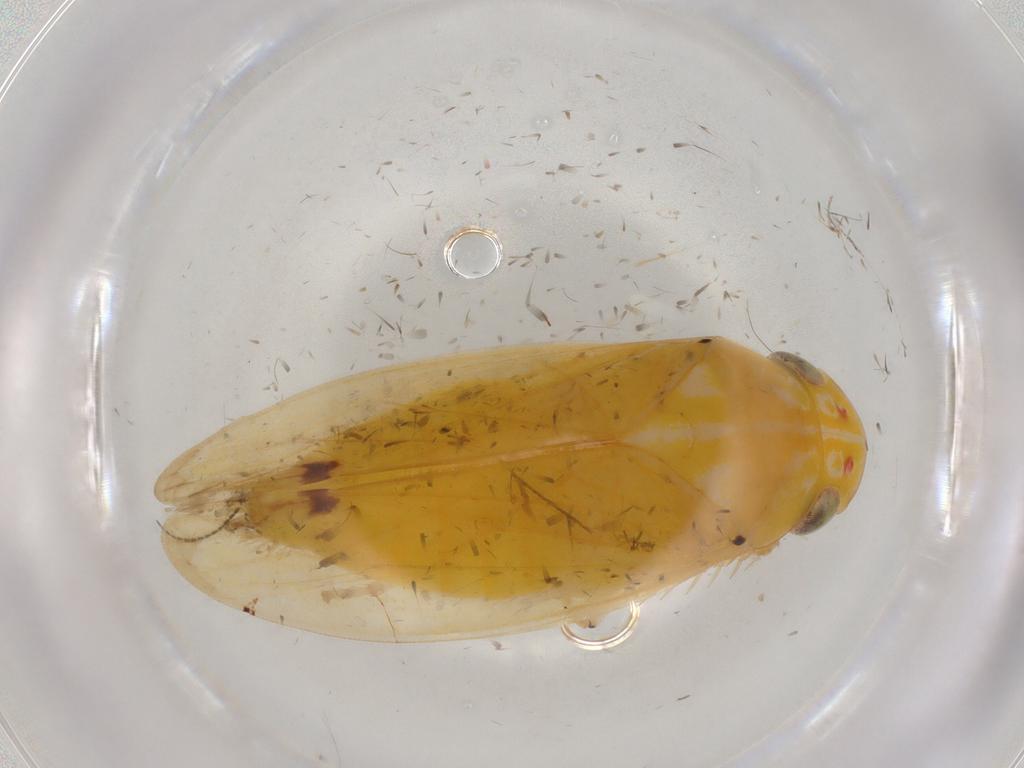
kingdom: Animalia
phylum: Arthropoda
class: Insecta
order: Hemiptera
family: Cicadellidae
